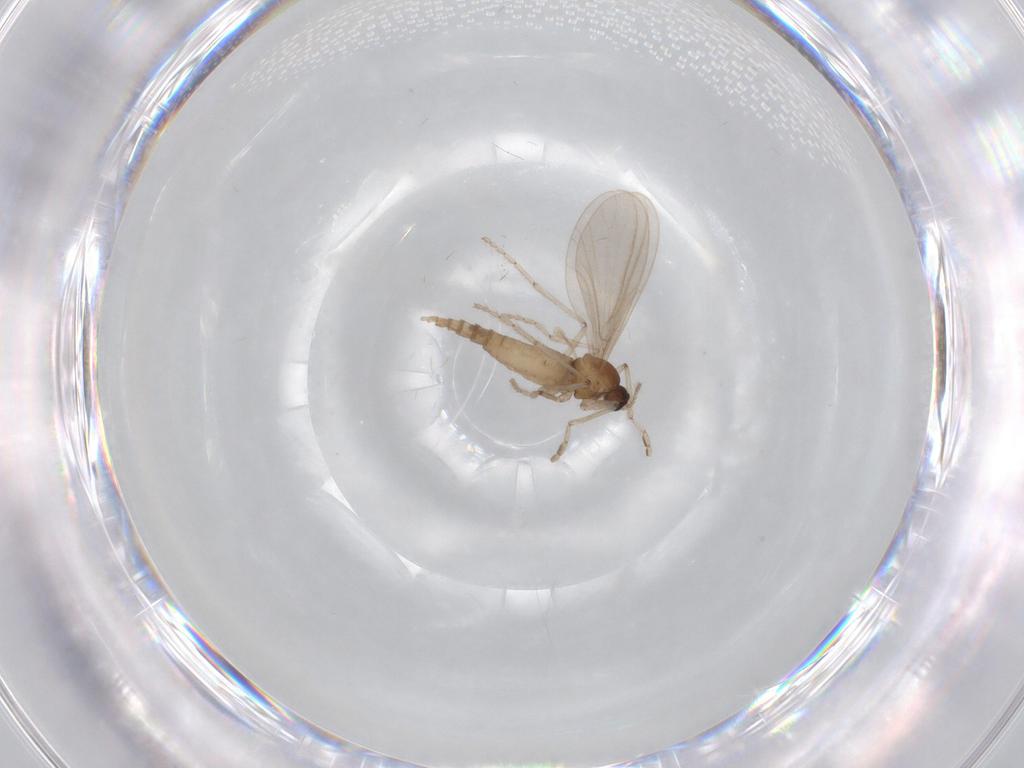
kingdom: Animalia
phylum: Arthropoda
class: Insecta
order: Diptera
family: Cecidomyiidae
